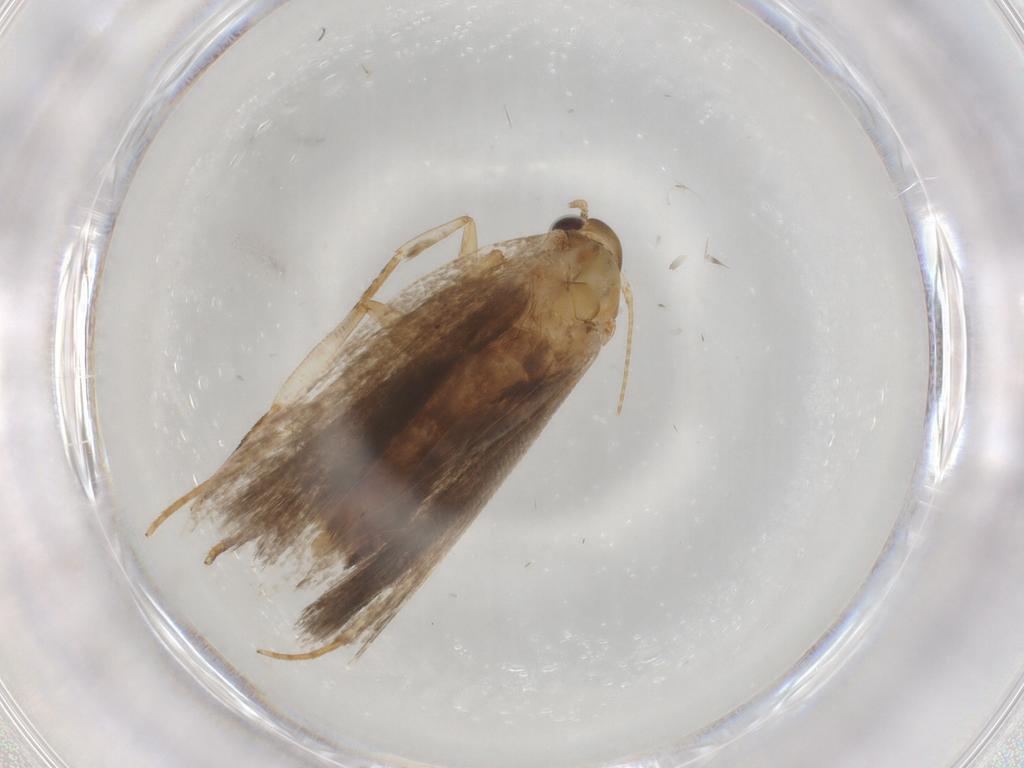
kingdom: Animalia
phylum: Arthropoda
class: Insecta
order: Lepidoptera
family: Pieridae
